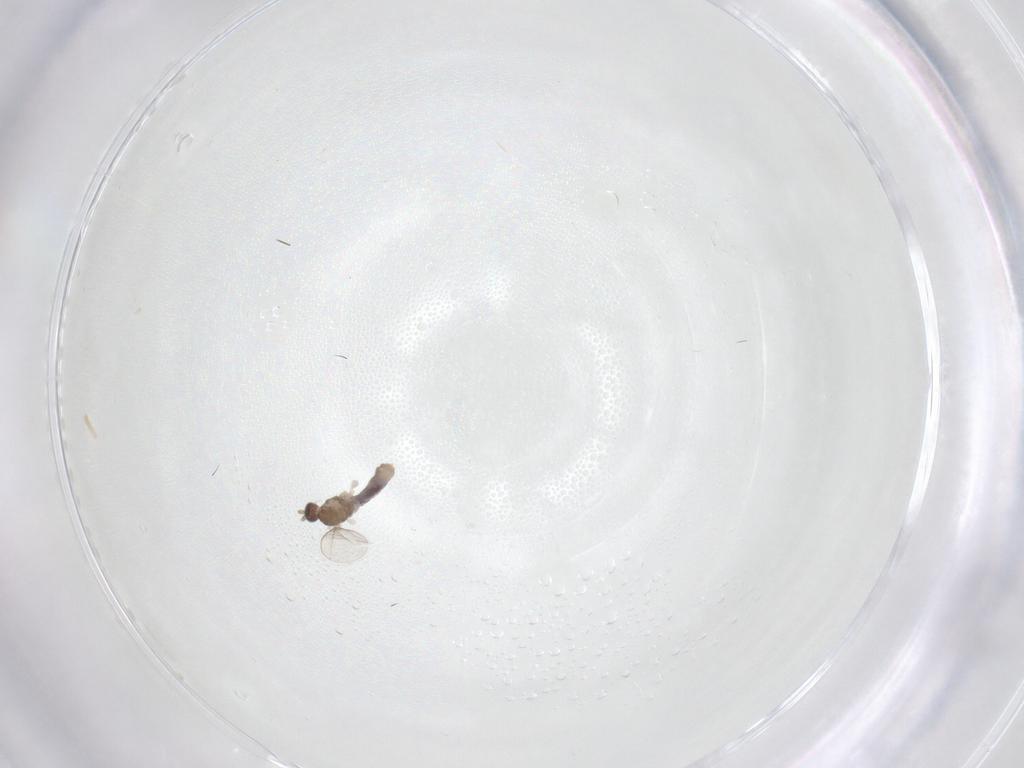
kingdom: Animalia
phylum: Arthropoda
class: Insecta
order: Diptera
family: Cecidomyiidae
